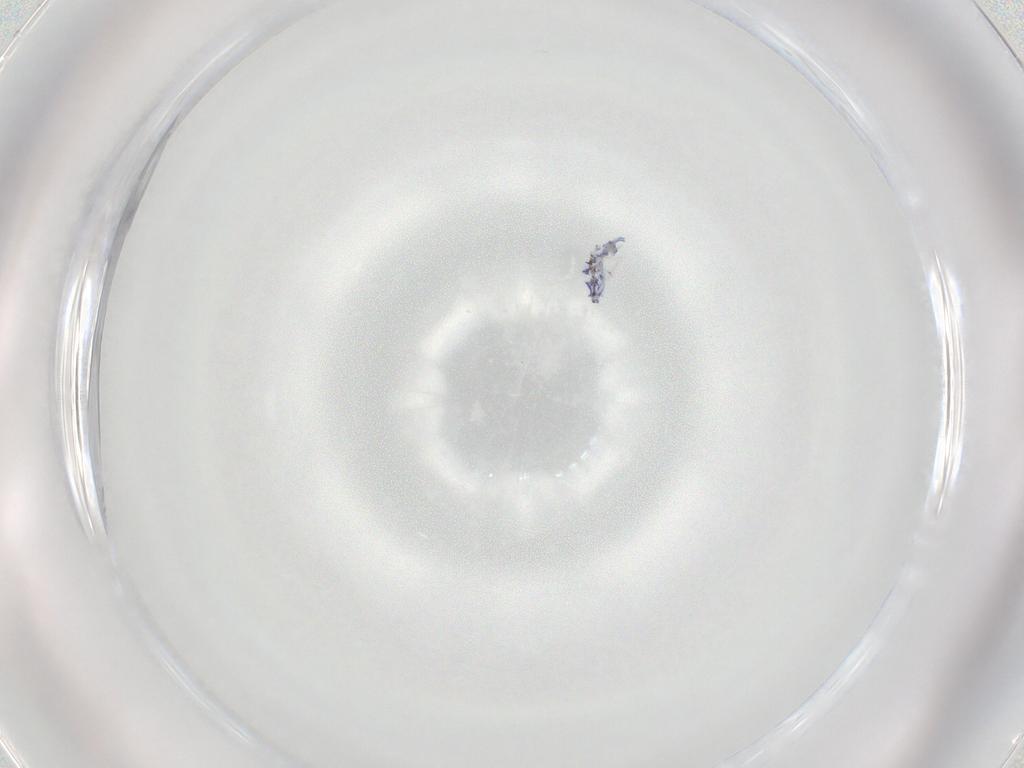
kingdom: Animalia
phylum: Arthropoda
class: Collembola
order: Entomobryomorpha
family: Entomobryidae
